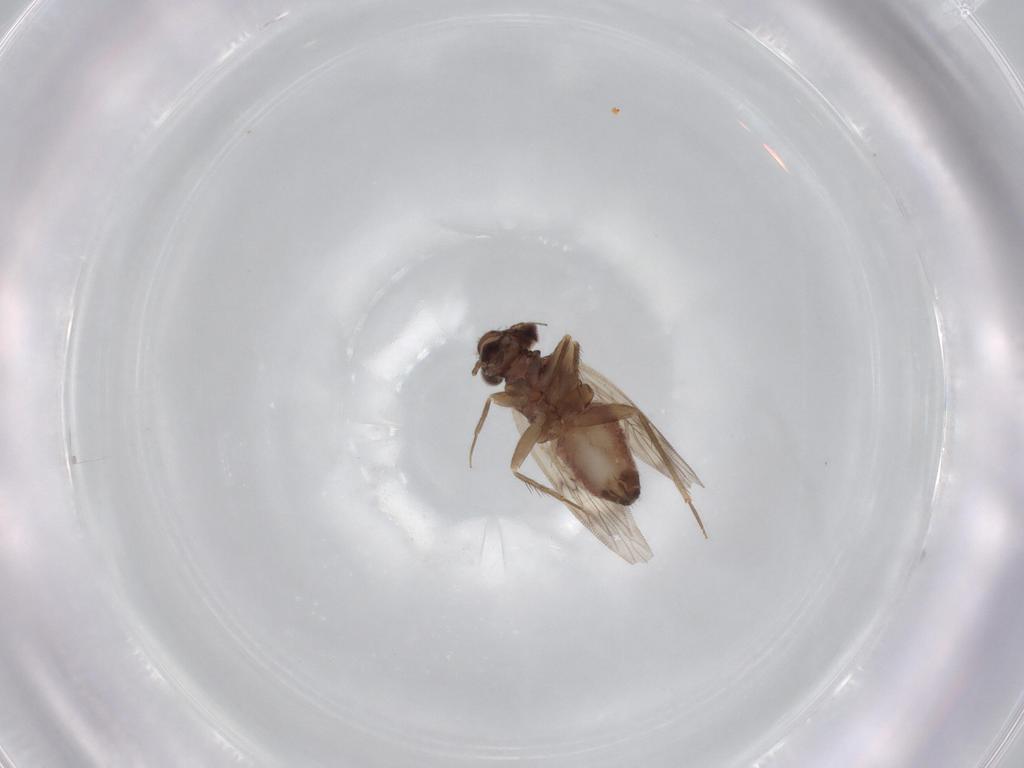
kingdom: Animalia
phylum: Arthropoda
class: Insecta
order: Psocodea
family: Lepidopsocidae
